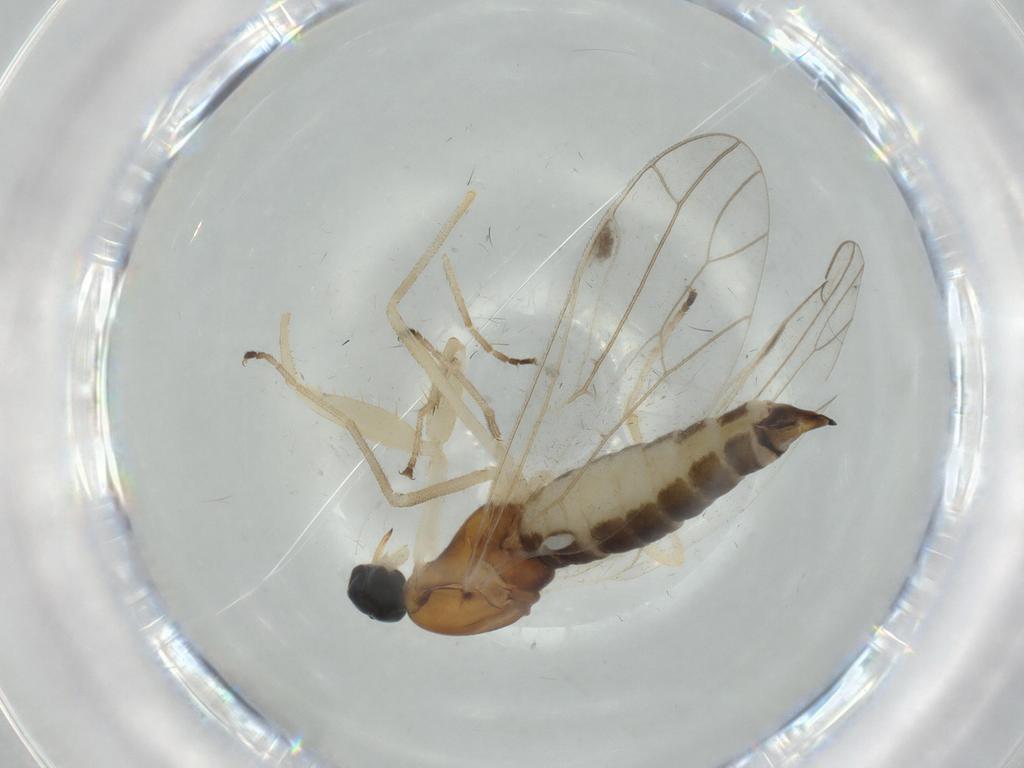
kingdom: Animalia
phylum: Arthropoda
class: Insecta
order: Diptera
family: Empididae
